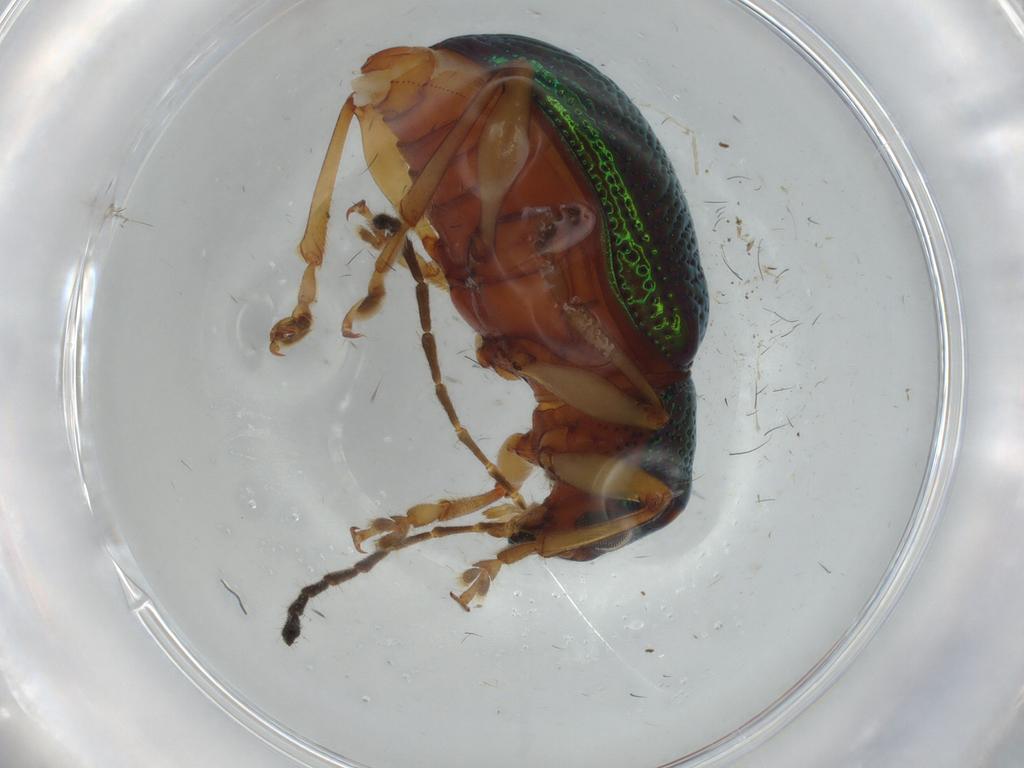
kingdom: Animalia
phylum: Arthropoda
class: Insecta
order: Coleoptera
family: Chrysomelidae
